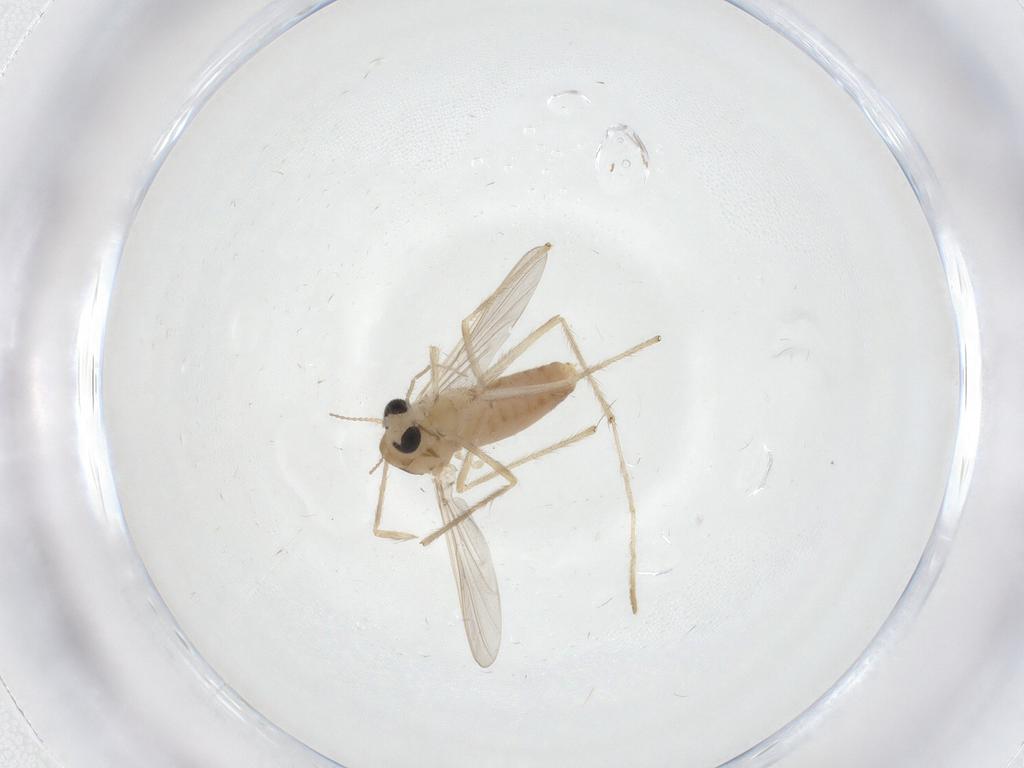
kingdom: Animalia
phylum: Arthropoda
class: Insecta
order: Diptera
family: Chironomidae
